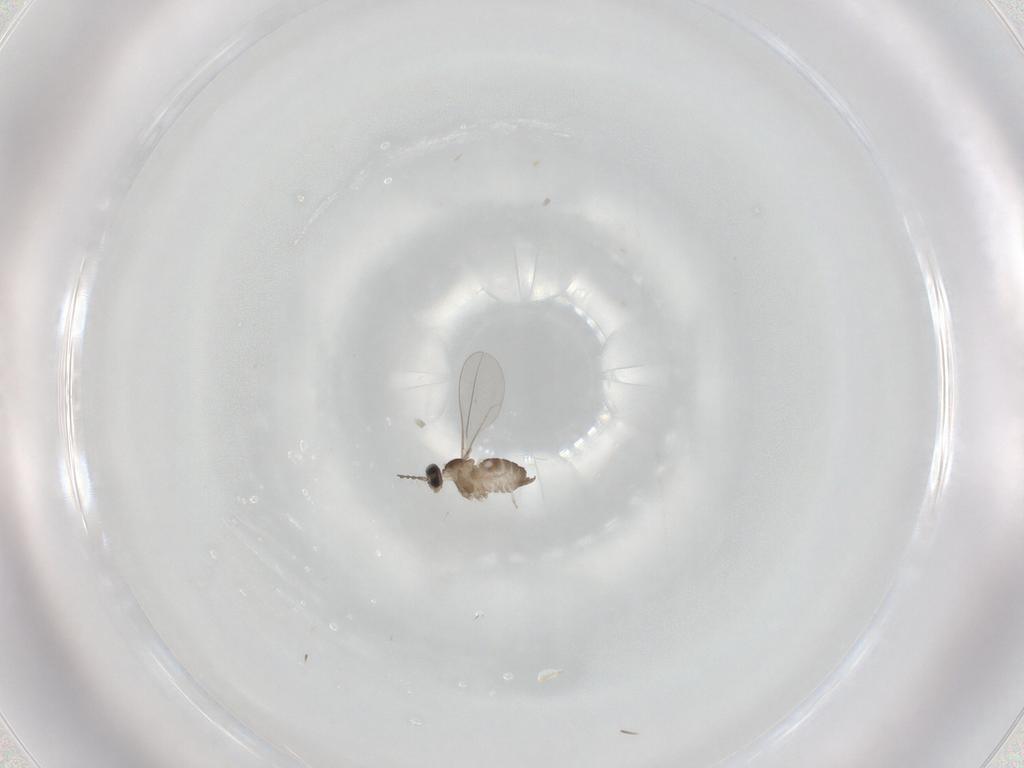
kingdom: Animalia
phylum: Arthropoda
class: Insecta
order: Diptera
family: Cecidomyiidae
